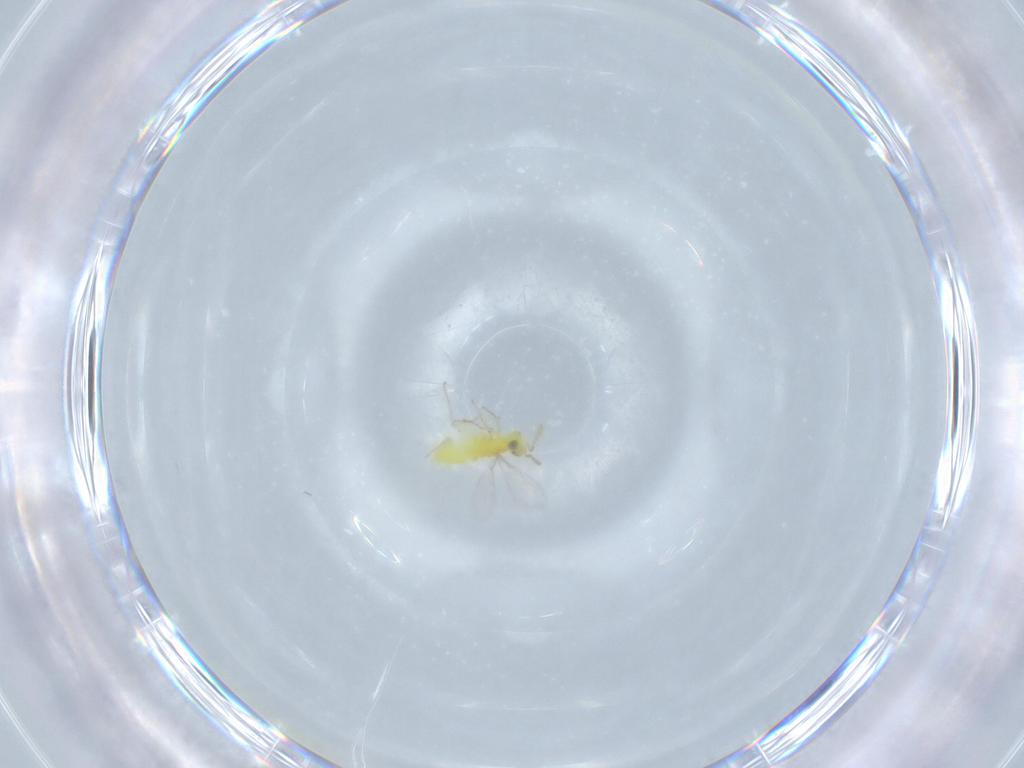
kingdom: Animalia
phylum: Arthropoda
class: Insecta
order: Hymenoptera
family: Aphelinidae
